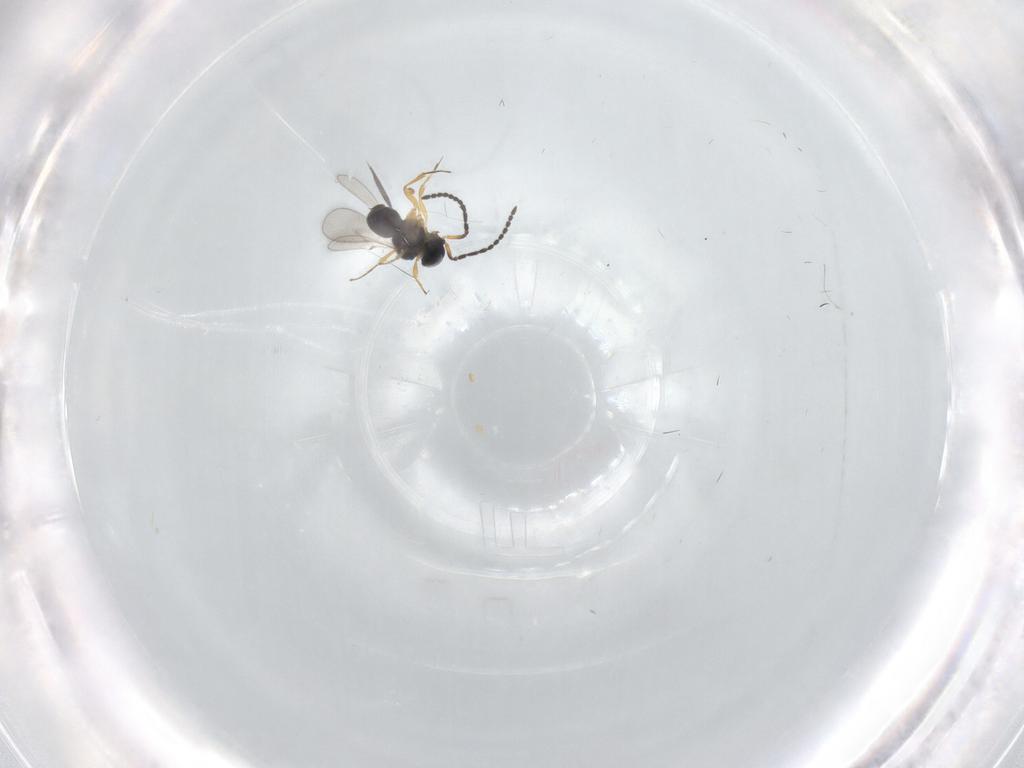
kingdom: Animalia
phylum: Arthropoda
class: Insecta
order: Hymenoptera
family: Scelionidae
